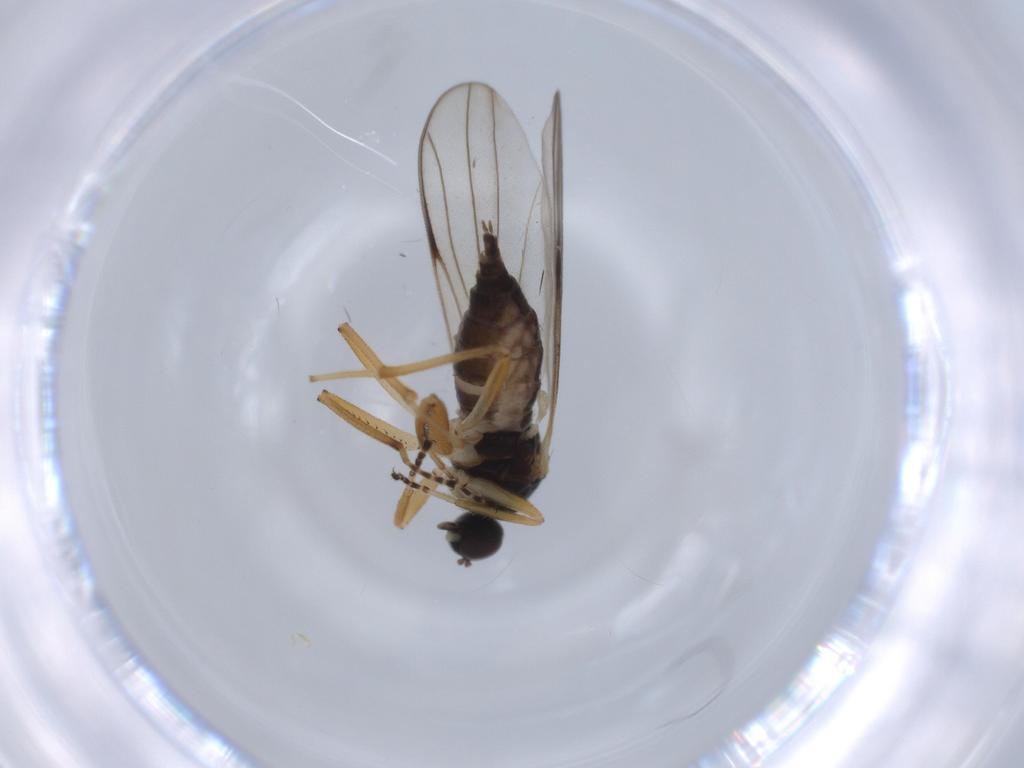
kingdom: Animalia
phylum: Arthropoda
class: Insecta
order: Diptera
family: Hybotidae
